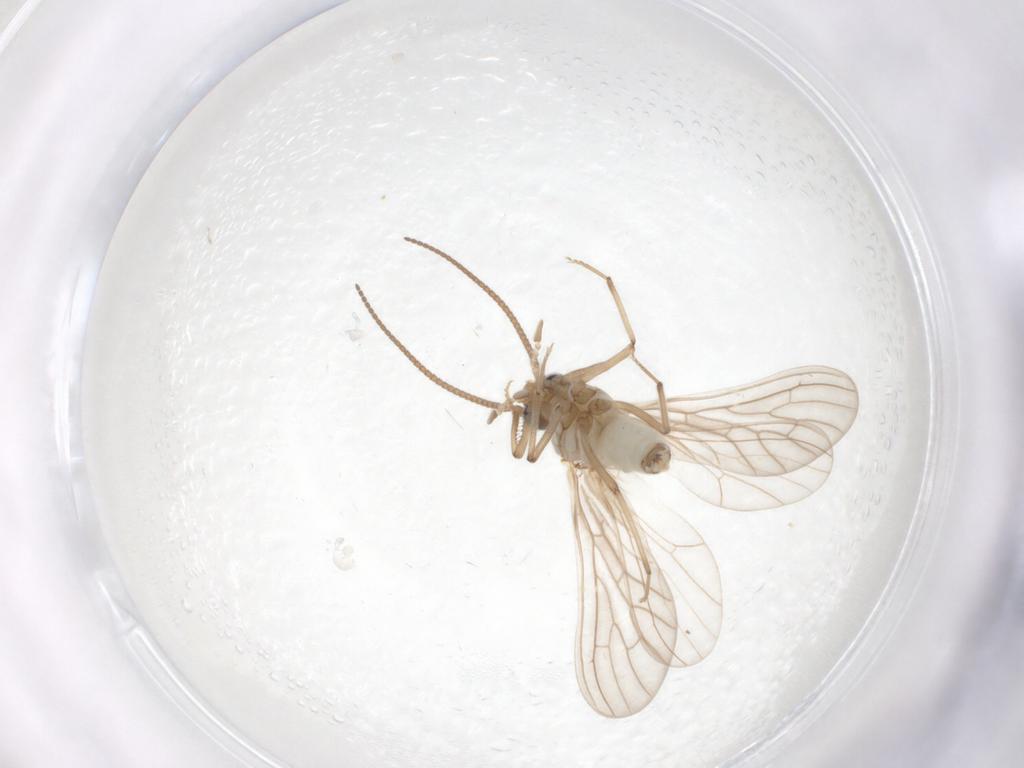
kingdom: Animalia
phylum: Arthropoda
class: Insecta
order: Neuroptera
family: Coniopterygidae
